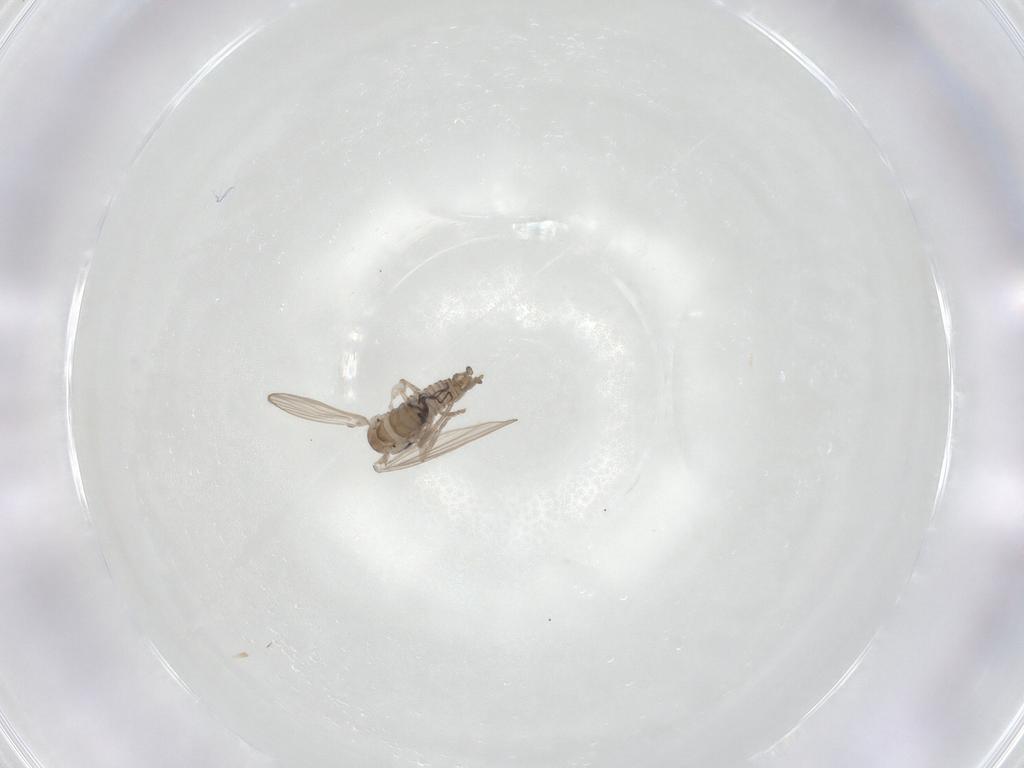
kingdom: Animalia
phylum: Arthropoda
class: Insecta
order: Diptera
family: Psychodidae
